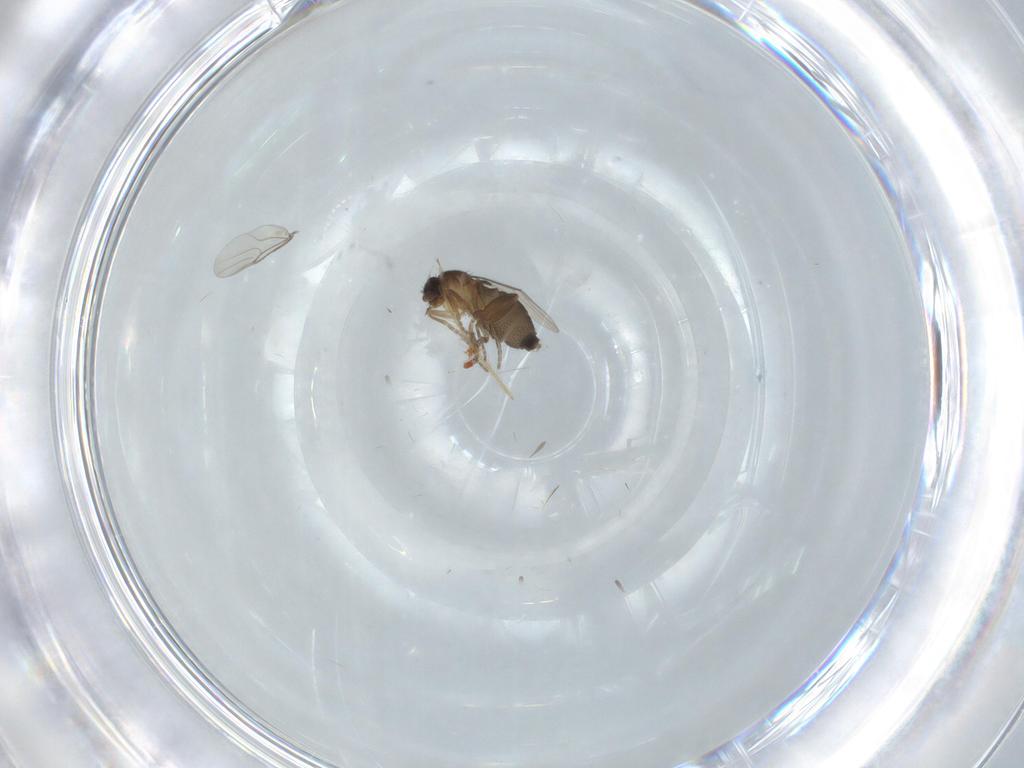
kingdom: Animalia
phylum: Arthropoda
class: Insecta
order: Diptera
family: Phoridae
